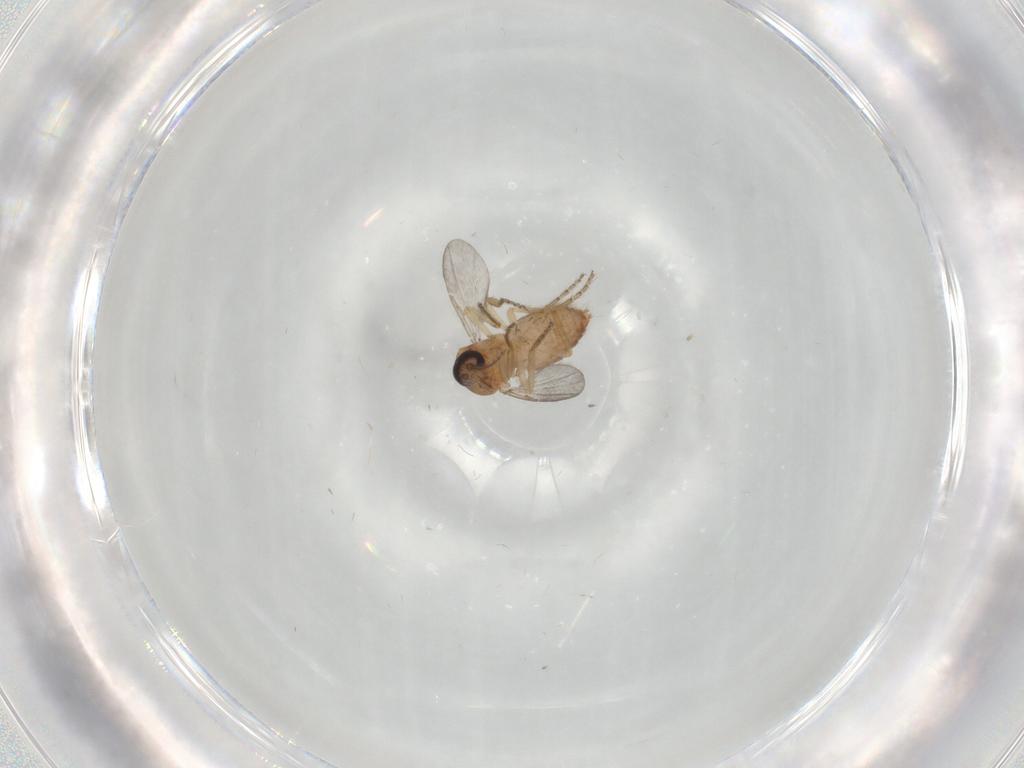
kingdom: Animalia
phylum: Arthropoda
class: Insecta
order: Diptera
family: Ceratopogonidae
